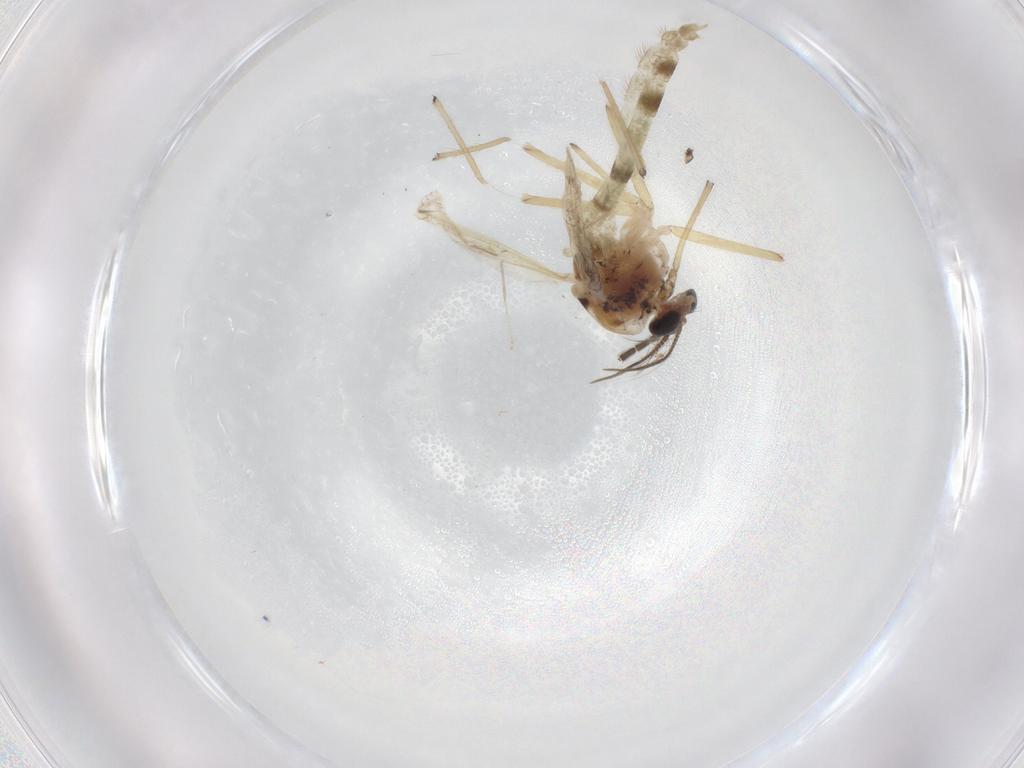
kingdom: Animalia
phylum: Arthropoda
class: Insecta
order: Diptera
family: Chironomidae
